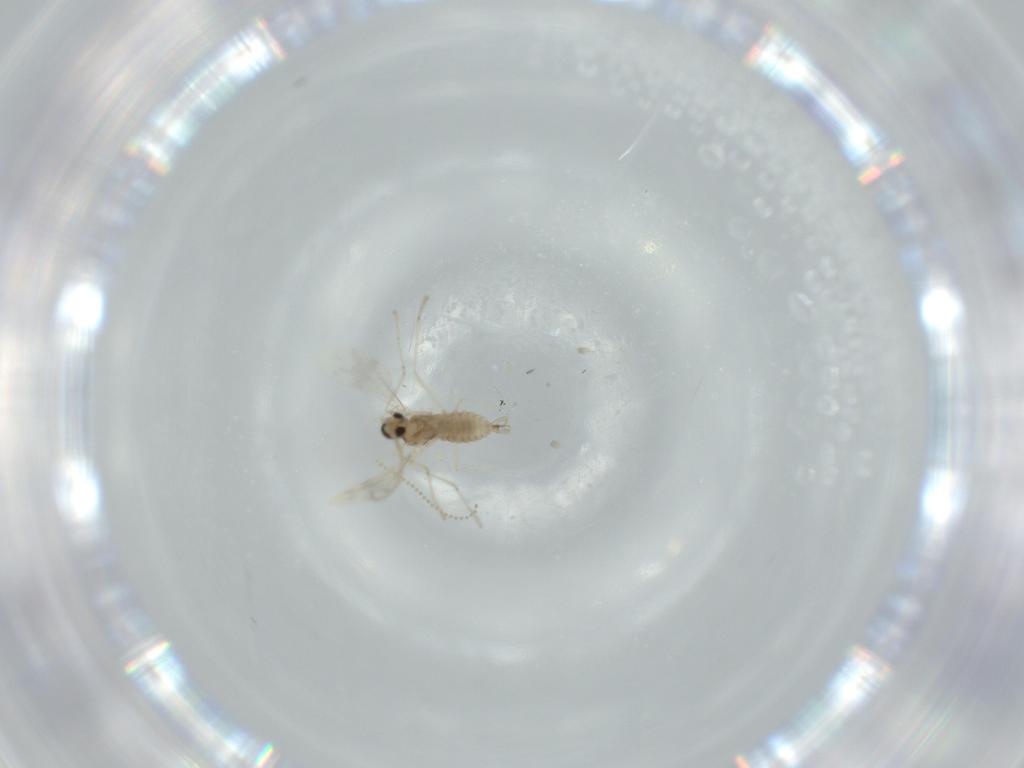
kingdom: Animalia
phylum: Arthropoda
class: Insecta
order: Diptera
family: Cecidomyiidae
